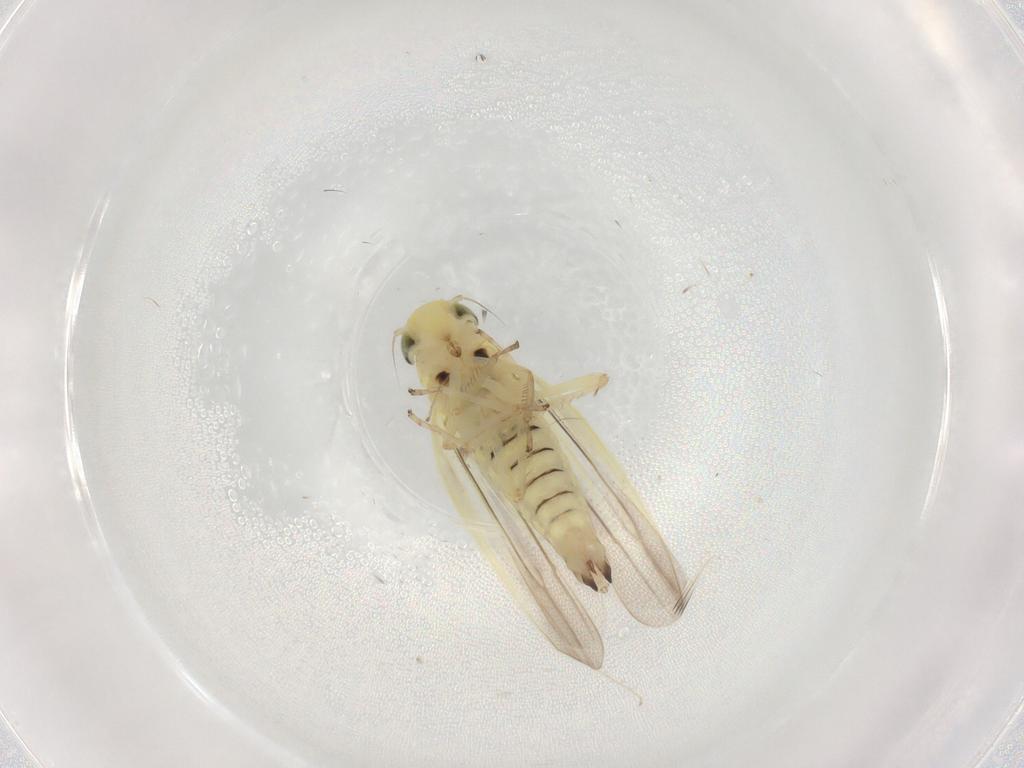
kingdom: Animalia
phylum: Arthropoda
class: Insecta
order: Hemiptera
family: Cicadellidae
